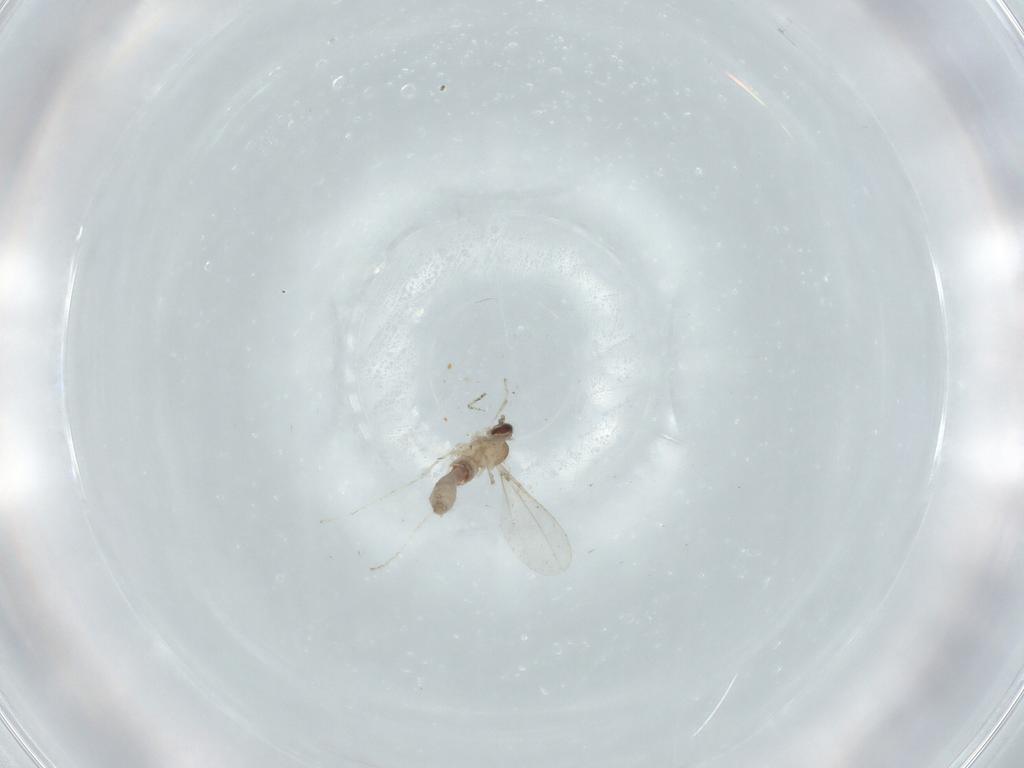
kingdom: Animalia
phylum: Arthropoda
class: Insecta
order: Diptera
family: Cecidomyiidae
